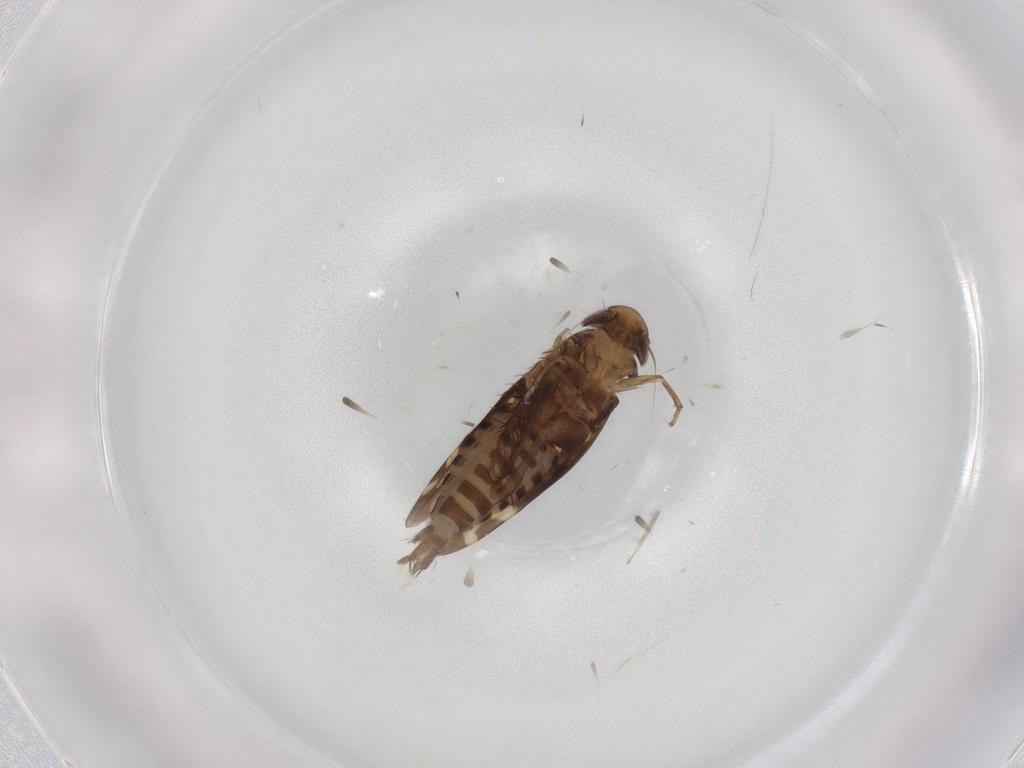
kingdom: Animalia
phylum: Arthropoda
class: Insecta
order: Hemiptera
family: Cicadellidae
